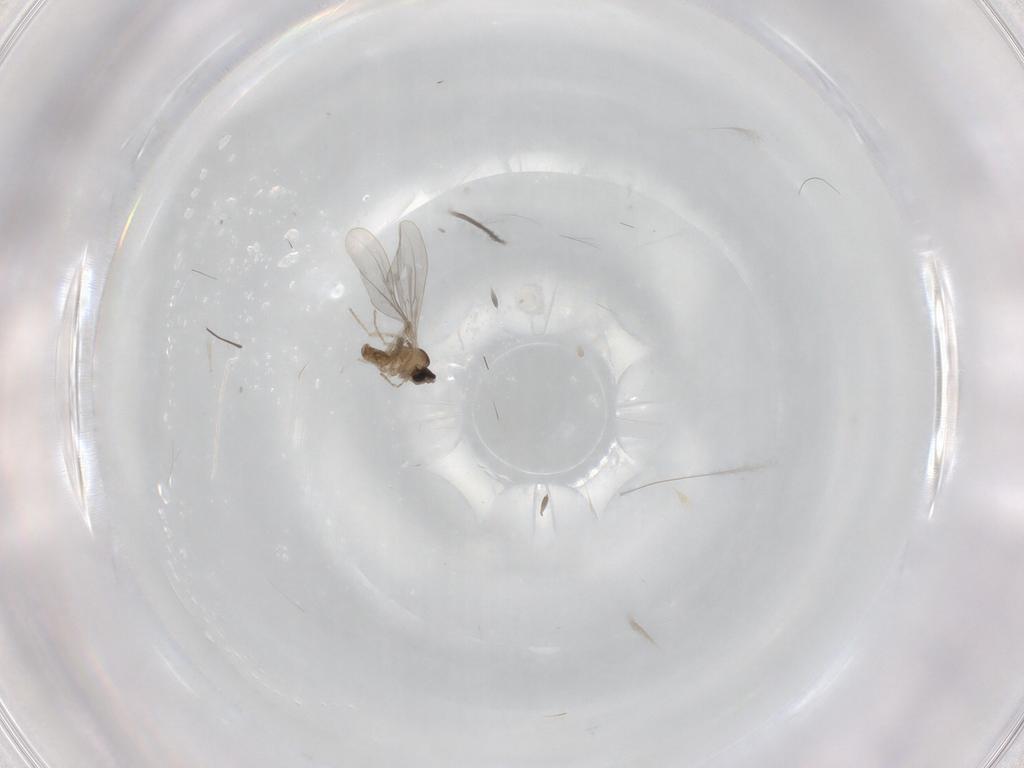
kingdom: Animalia
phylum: Arthropoda
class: Insecta
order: Diptera
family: Cecidomyiidae
